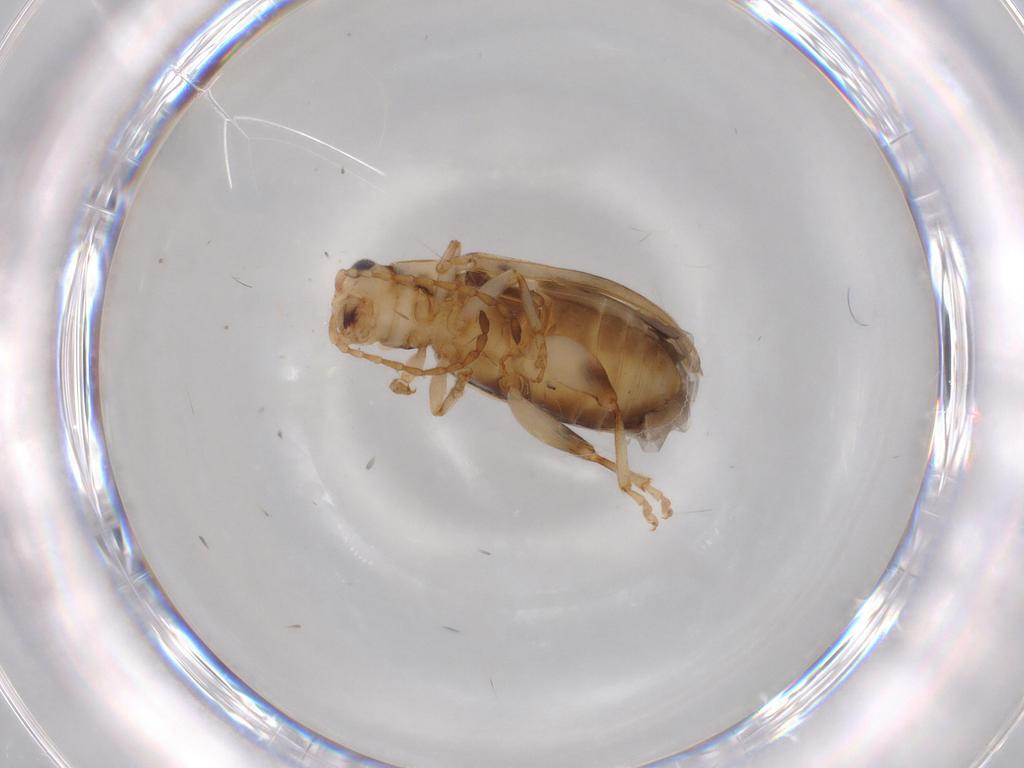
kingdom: Animalia
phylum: Arthropoda
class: Insecta
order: Coleoptera
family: Chrysomelidae
